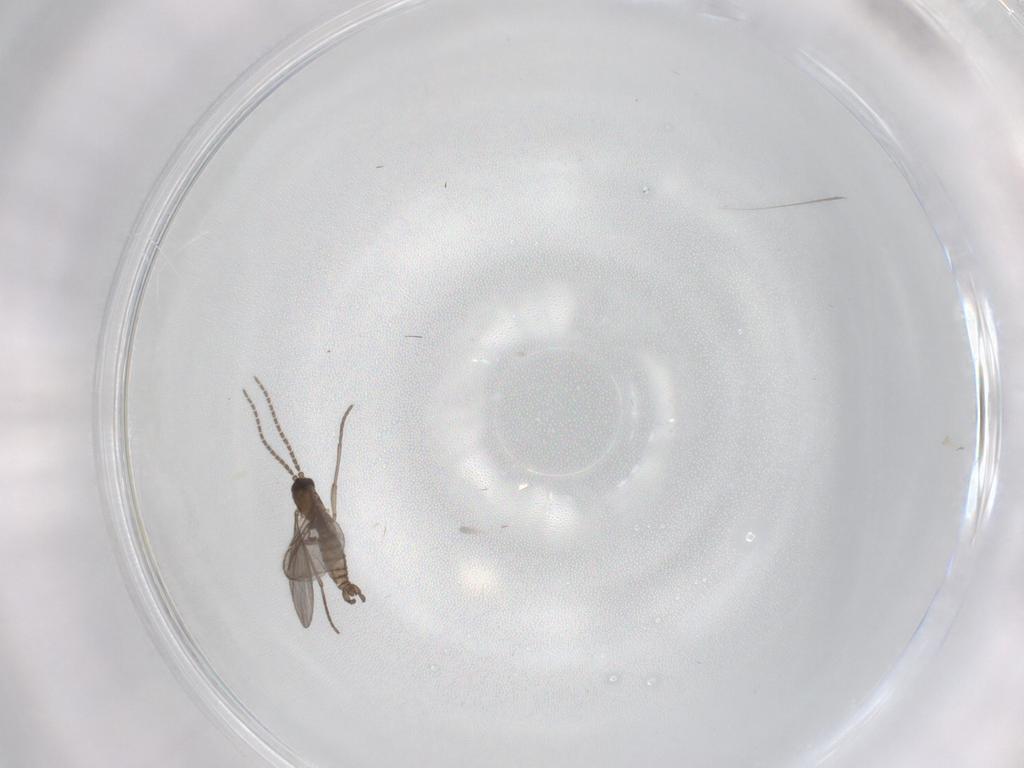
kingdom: Animalia
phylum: Arthropoda
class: Insecta
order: Diptera
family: Sciaridae
